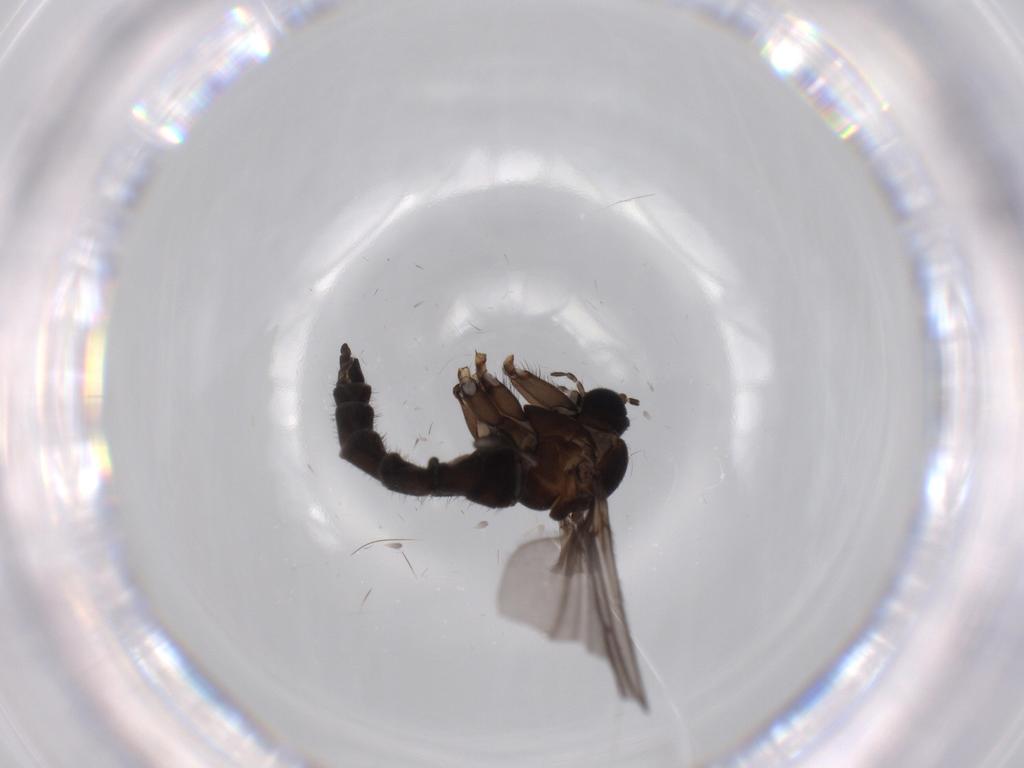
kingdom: Animalia
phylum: Arthropoda
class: Insecta
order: Diptera
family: Sciaridae
